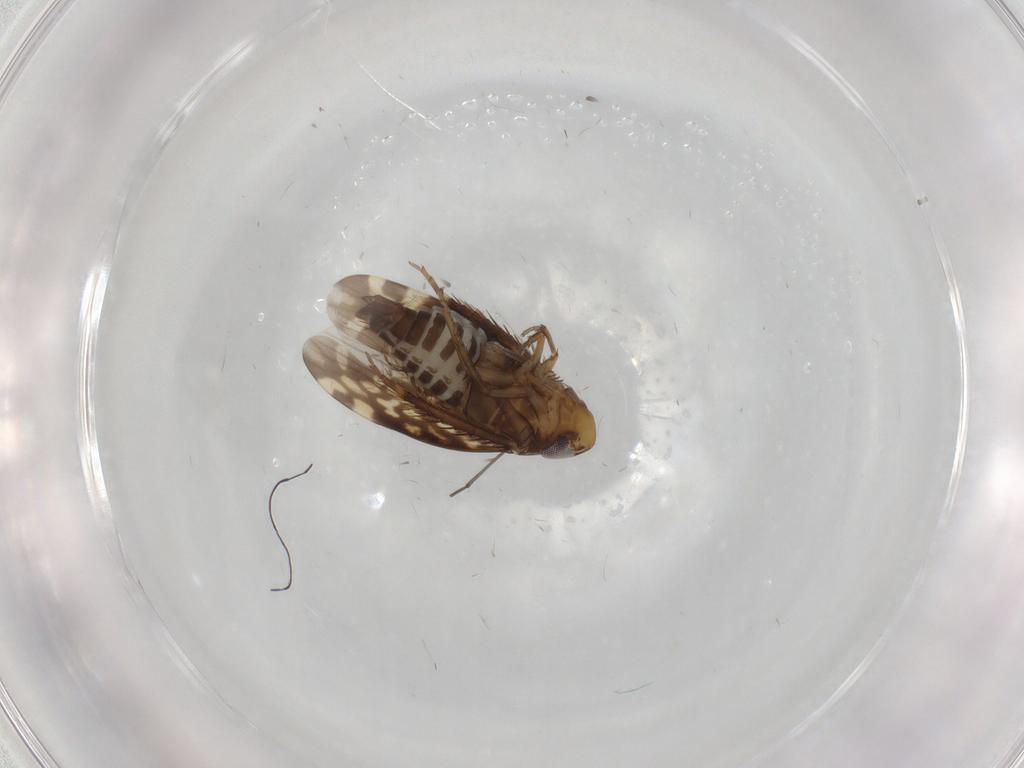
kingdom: Animalia
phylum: Arthropoda
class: Insecta
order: Hemiptera
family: Cicadellidae
